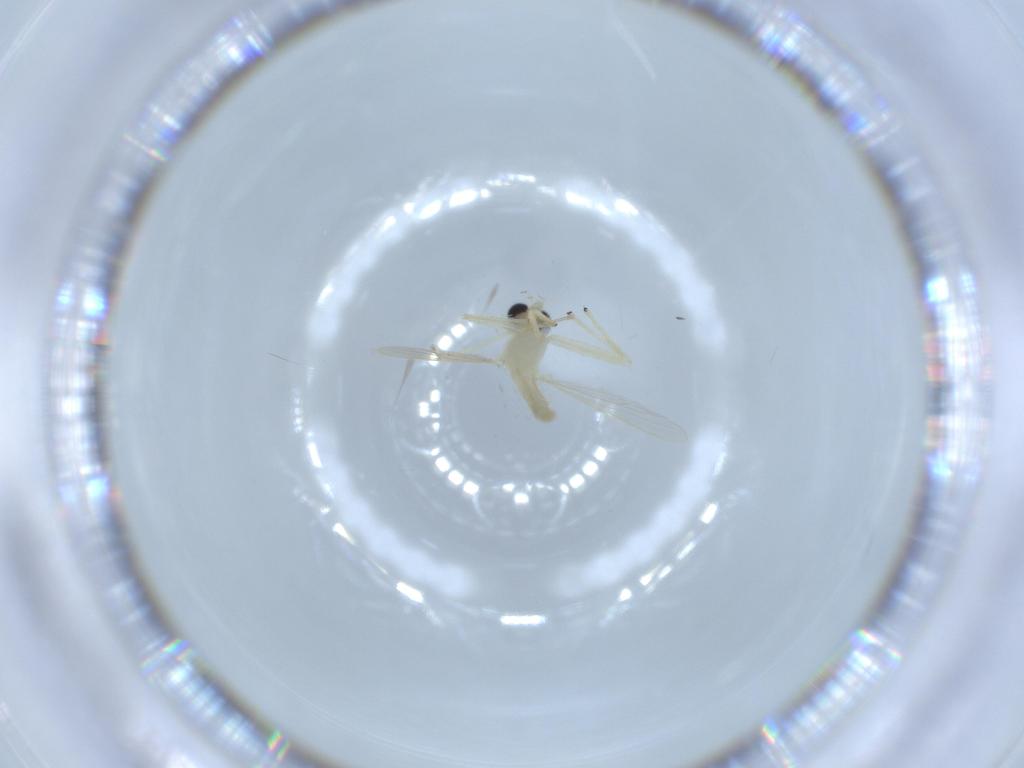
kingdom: Animalia
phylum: Arthropoda
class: Insecta
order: Diptera
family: Chironomidae
